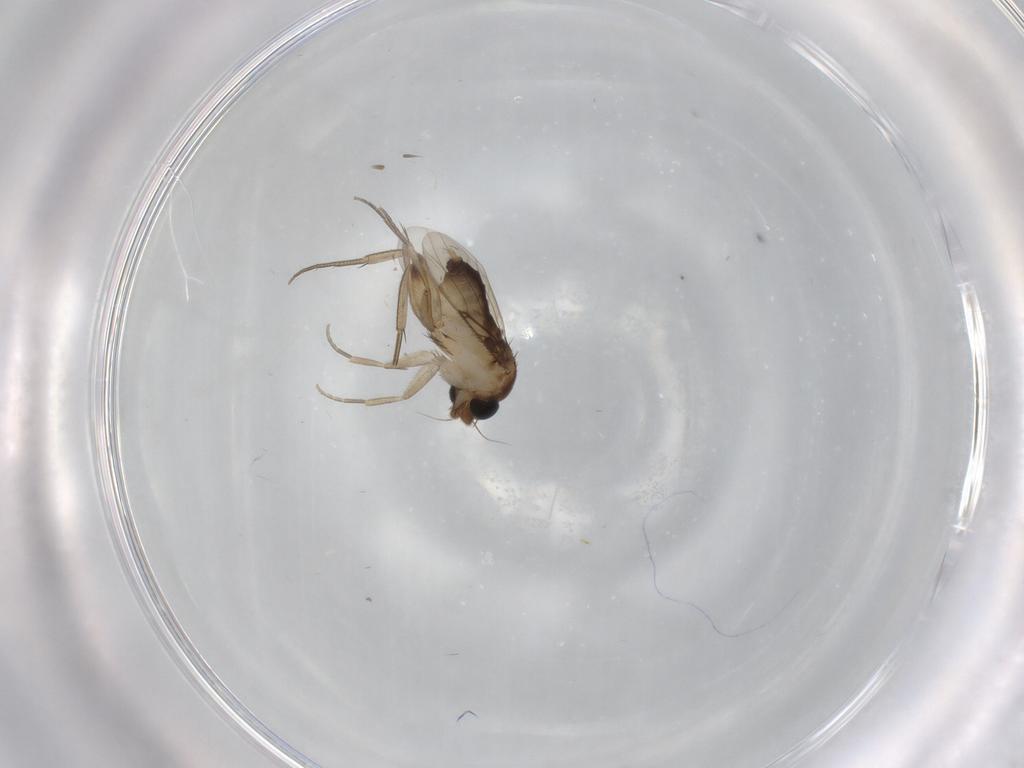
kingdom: Animalia
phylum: Arthropoda
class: Insecta
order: Diptera
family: Phoridae
